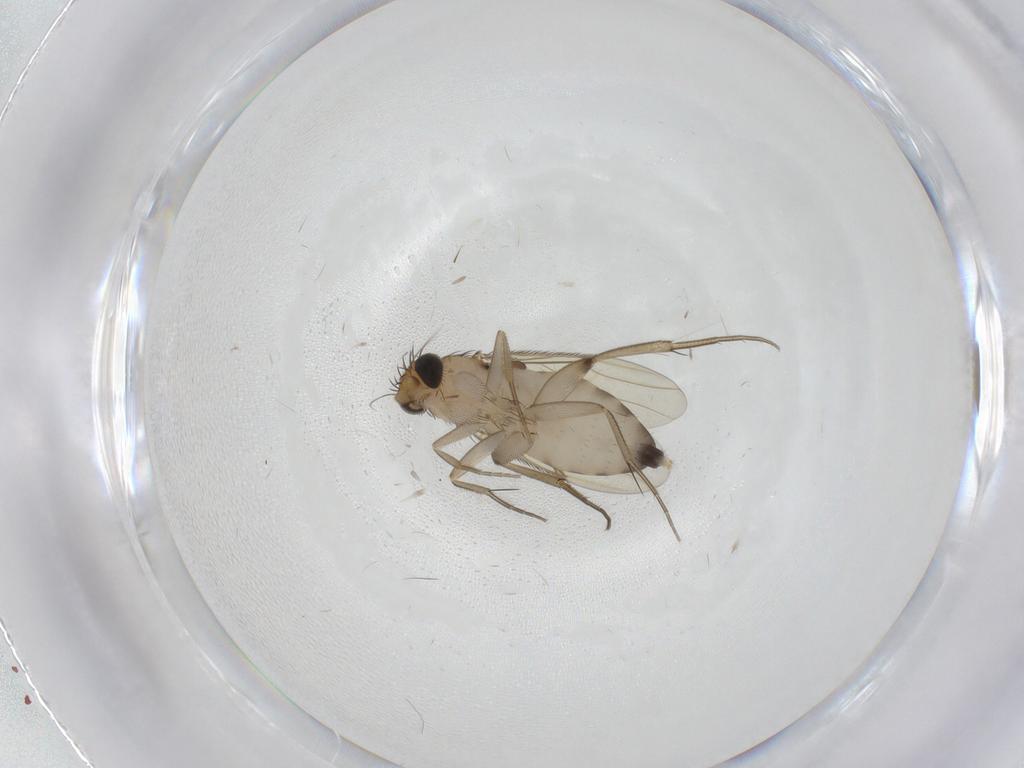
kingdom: Animalia
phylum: Arthropoda
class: Insecta
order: Diptera
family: Phoridae
